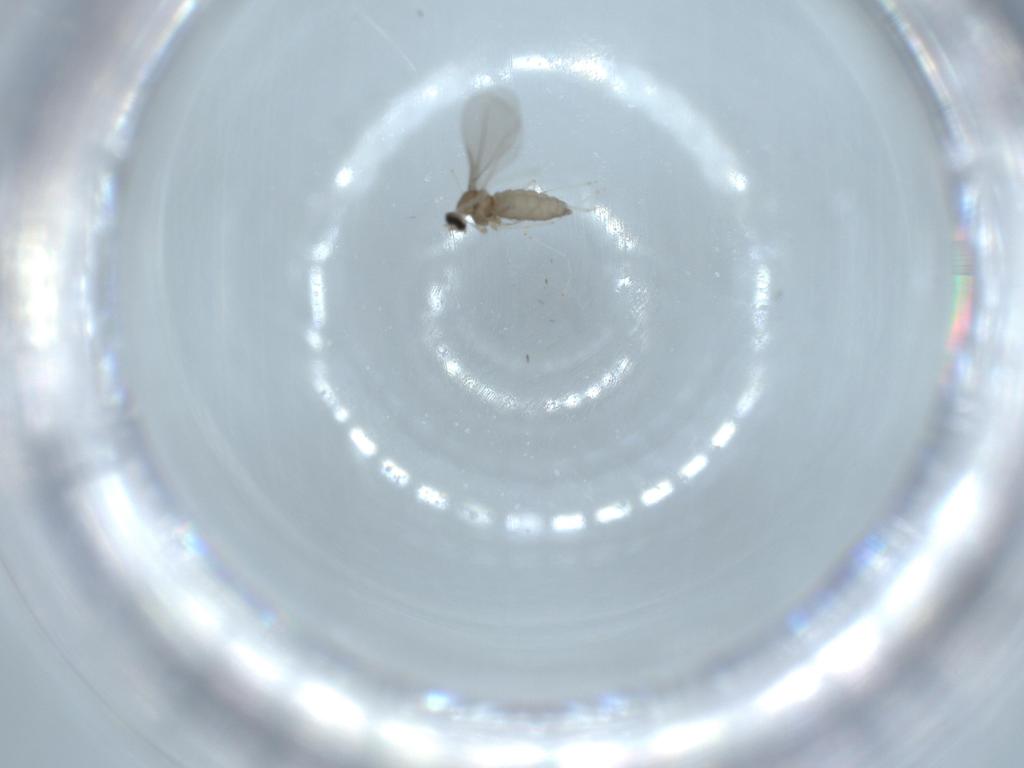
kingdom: Animalia
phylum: Arthropoda
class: Insecta
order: Diptera
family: Cecidomyiidae
